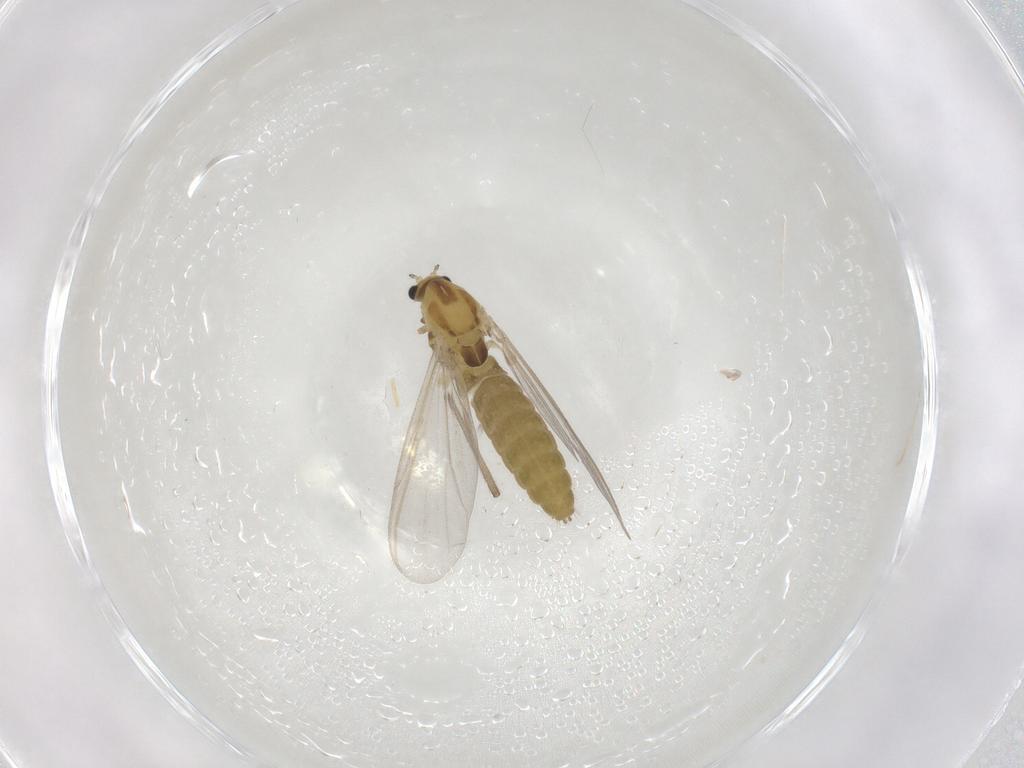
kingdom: Animalia
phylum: Arthropoda
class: Insecta
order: Diptera
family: Chironomidae
